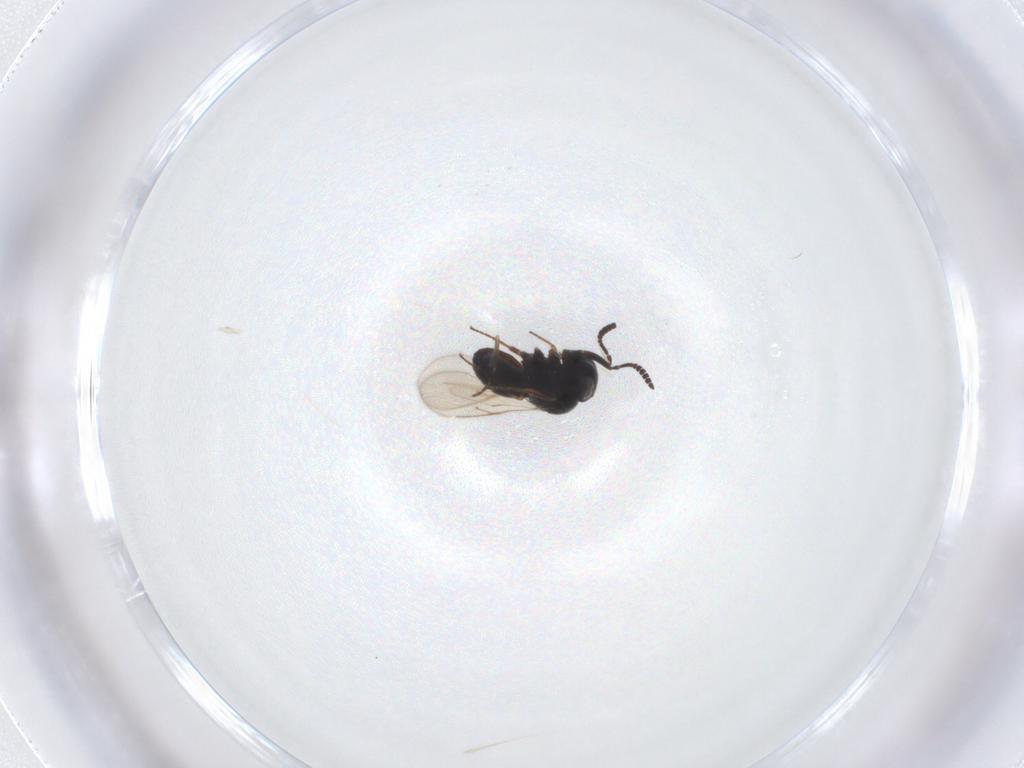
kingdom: Animalia
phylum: Arthropoda
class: Insecta
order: Hymenoptera
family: Scelionidae
